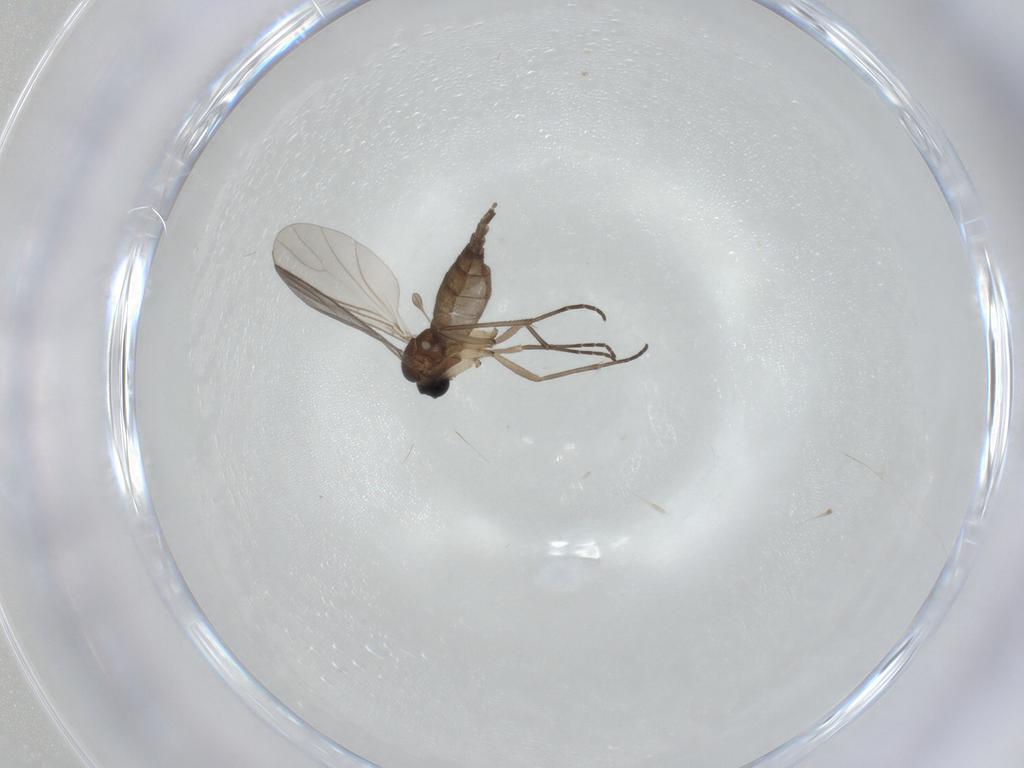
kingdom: Animalia
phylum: Arthropoda
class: Insecta
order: Diptera
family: Sciaridae
